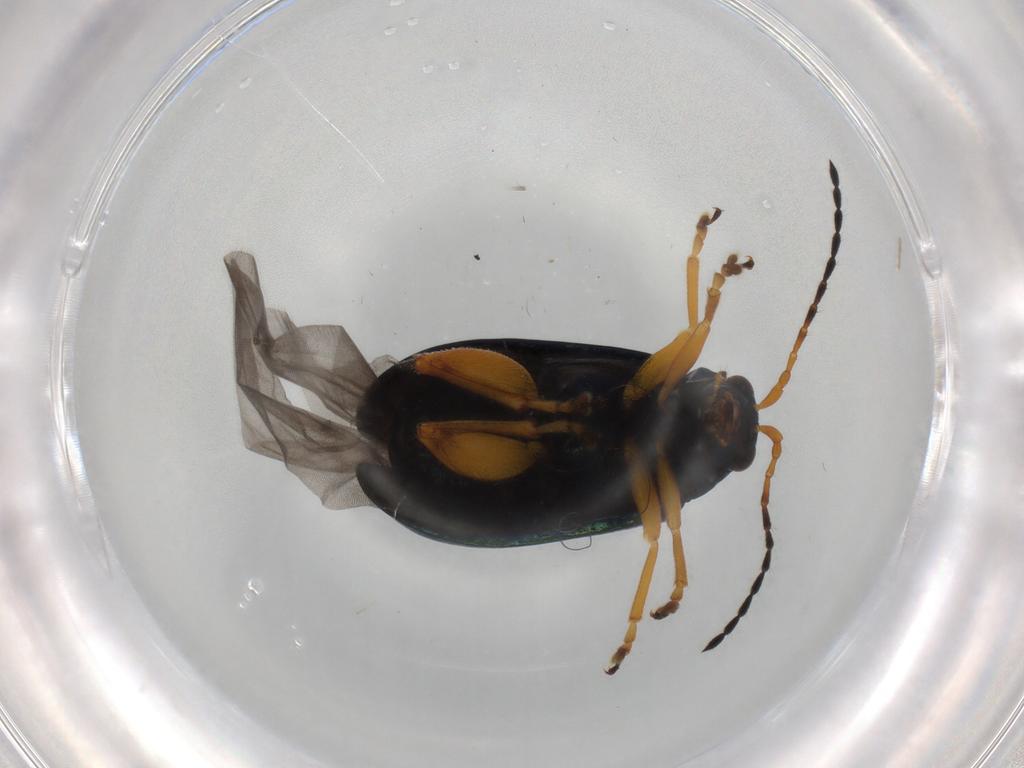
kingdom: Animalia
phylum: Arthropoda
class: Insecta
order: Coleoptera
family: Chrysomelidae
